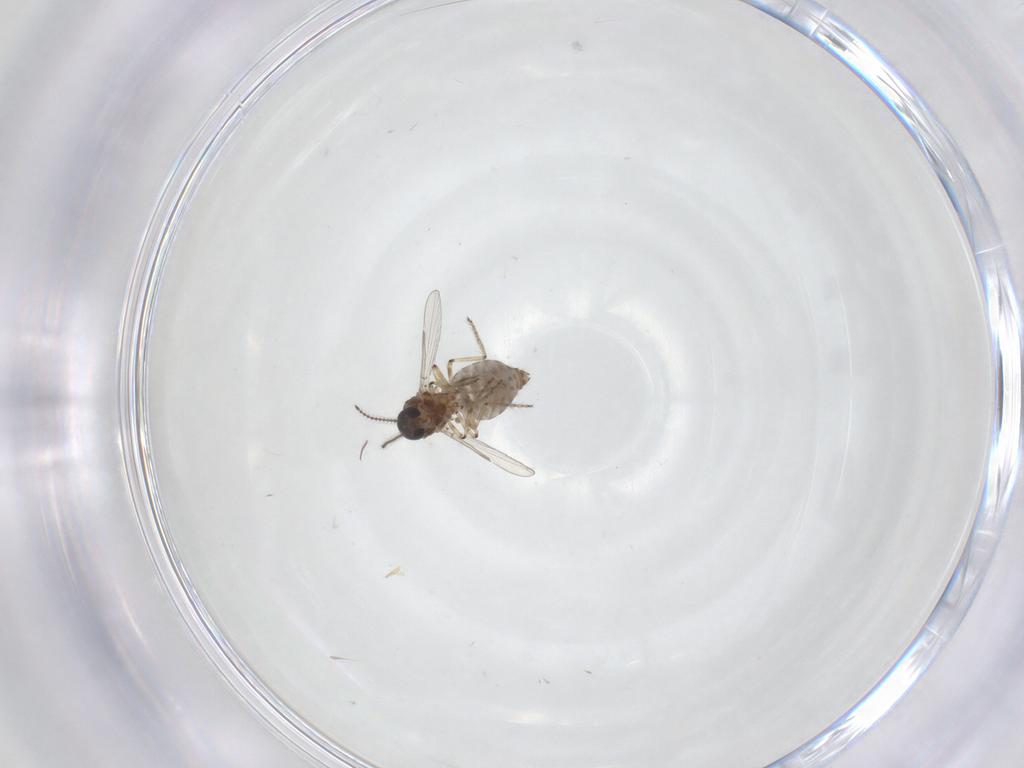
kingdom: Animalia
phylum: Arthropoda
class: Insecta
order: Diptera
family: Ceratopogonidae
